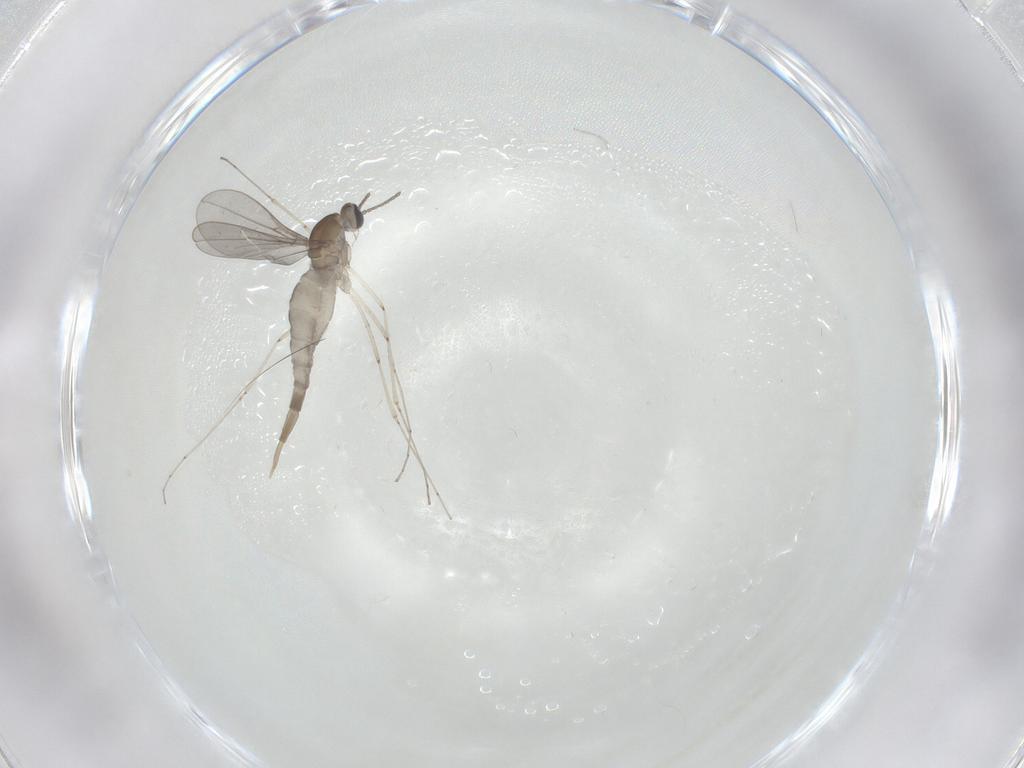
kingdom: Animalia
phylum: Arthropoda
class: Insecta
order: Diptera
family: Cecidomyiidae
